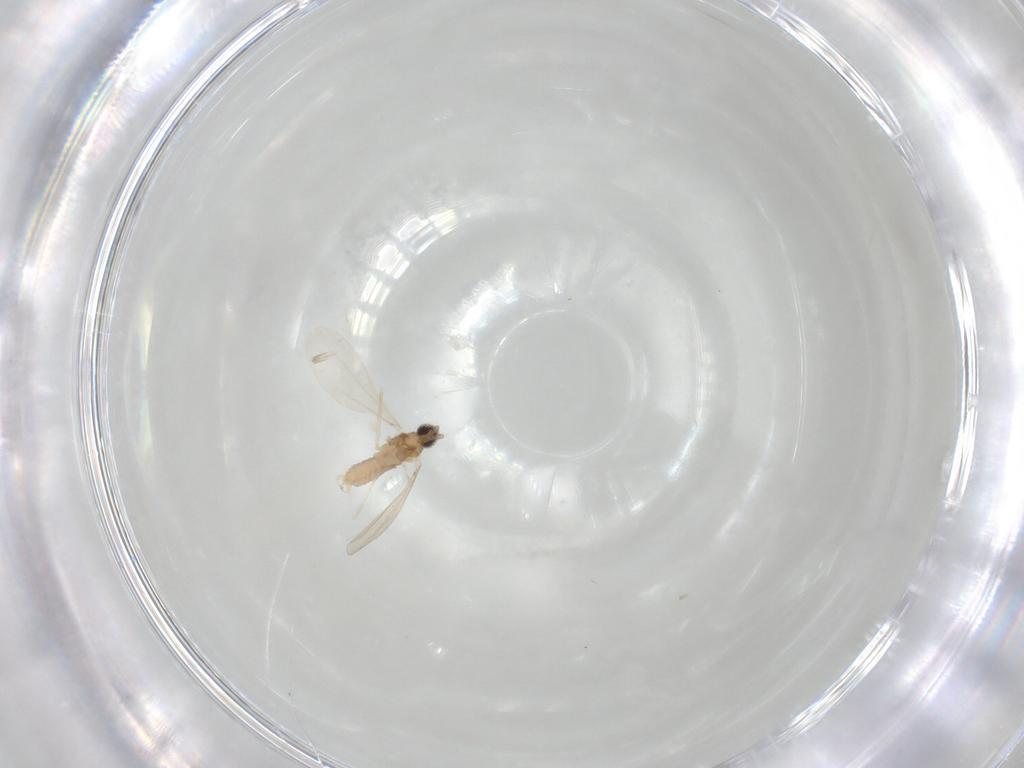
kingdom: Animalia
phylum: Arthropoda
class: Insecta
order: Diptera
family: Cecidomyiidae
